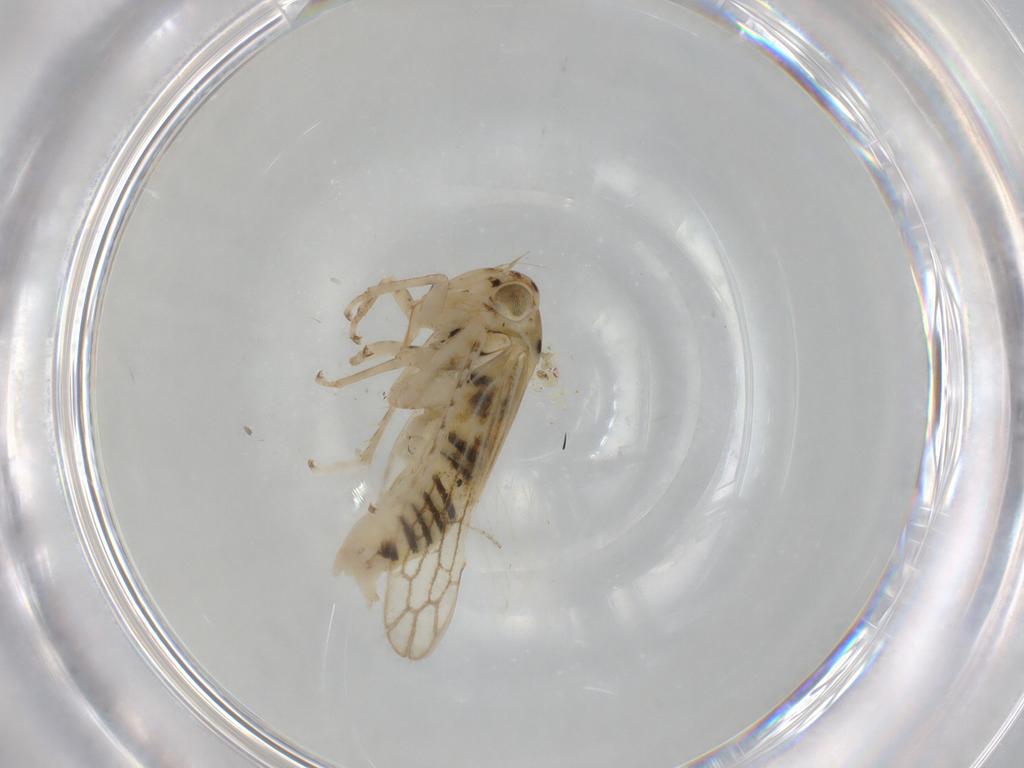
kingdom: Animalia
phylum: Arthropoda
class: Insecta
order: Hemiptera
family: Cicadellidae
